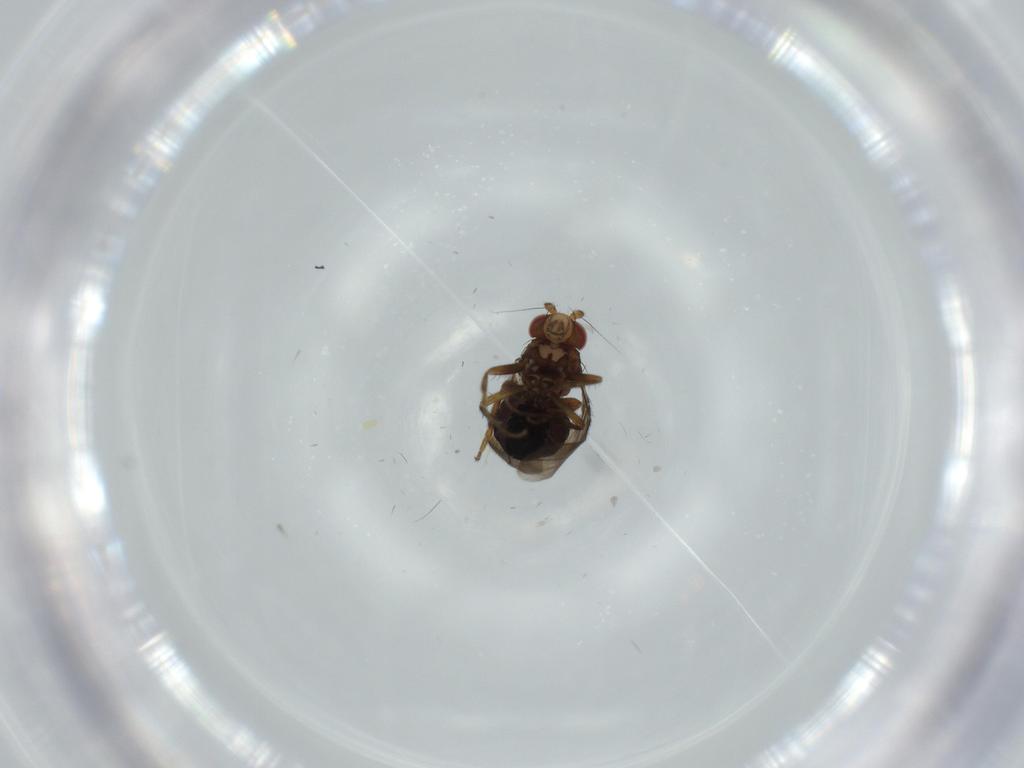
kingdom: Animalia
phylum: Arthropoda
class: Insecta
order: Diptera
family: Sphaeroceridae
